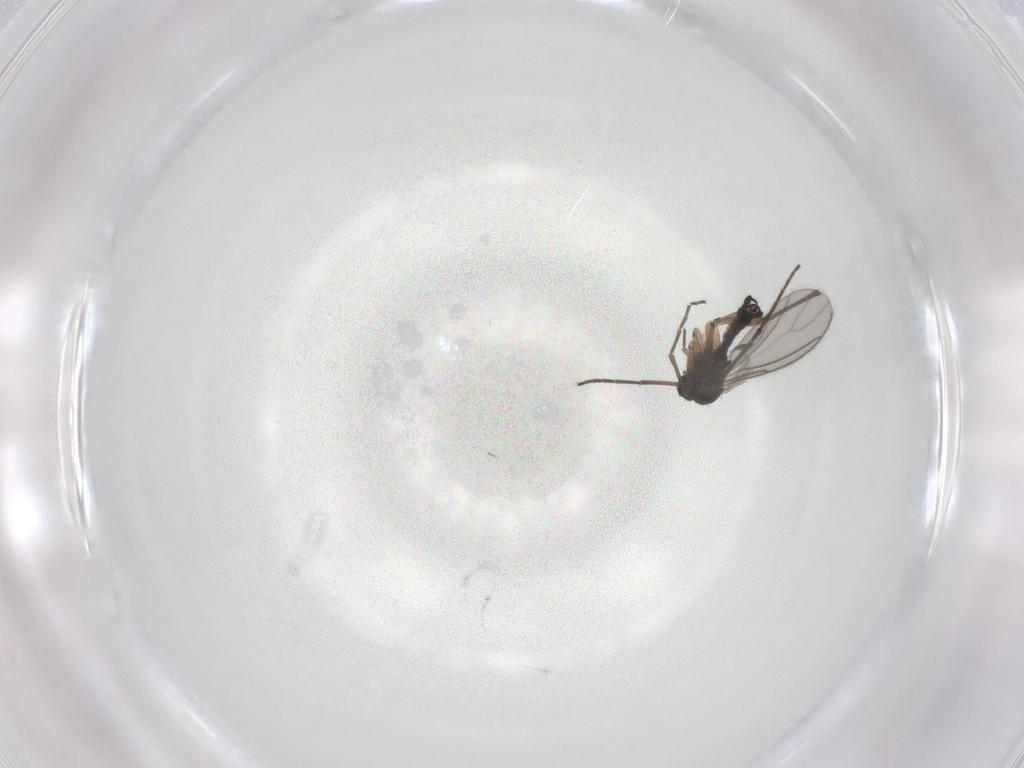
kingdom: Animalia
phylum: Arthropoda
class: Insecta
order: Diptera
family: Sciaridae
